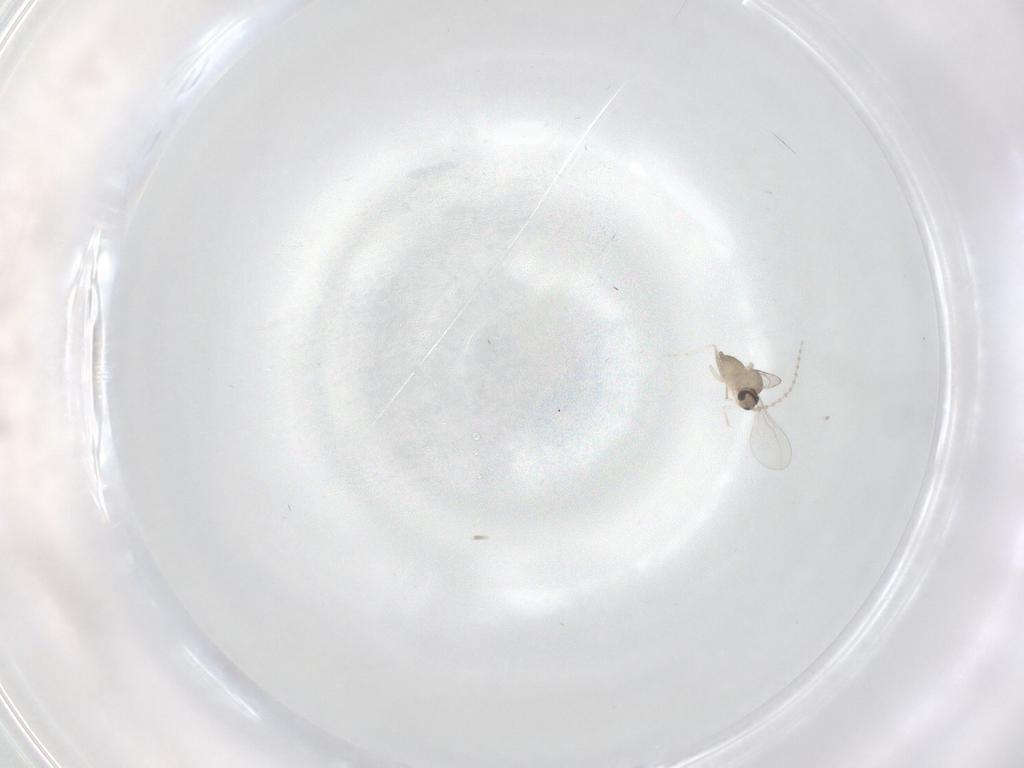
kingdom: Animalia
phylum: Arthropoda
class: Insecta
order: Diptera
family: Cecidomyiidae
